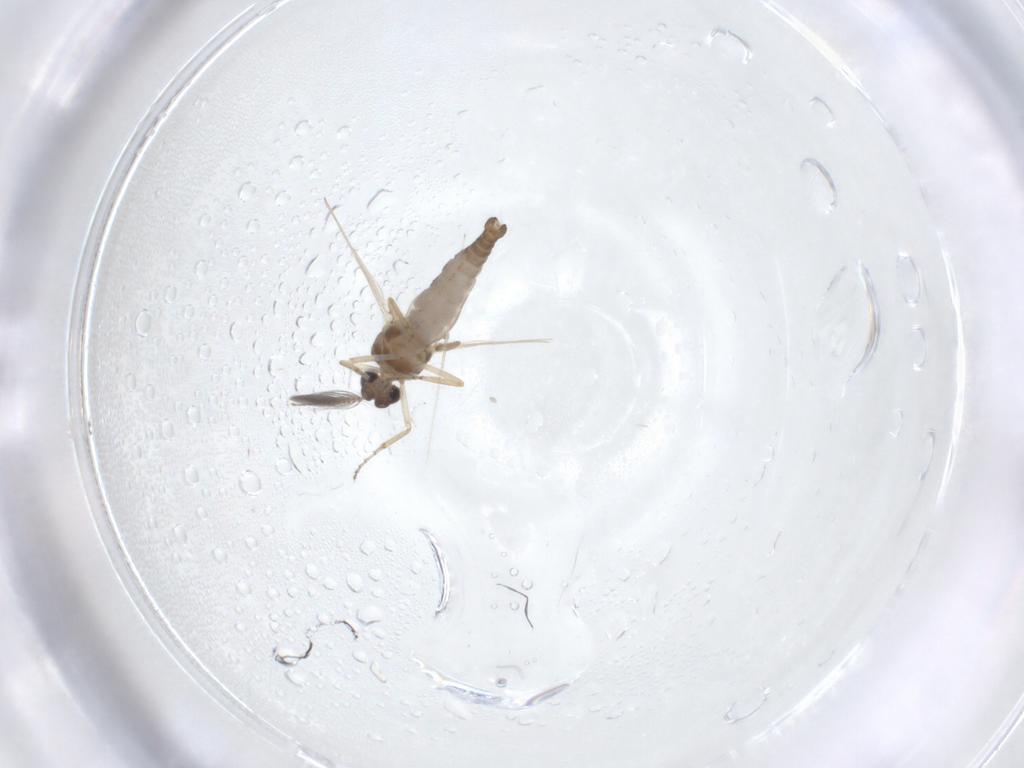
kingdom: Animalia
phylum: Arthropoda
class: Insecta
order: Diptera
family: Ceratopogonidae
